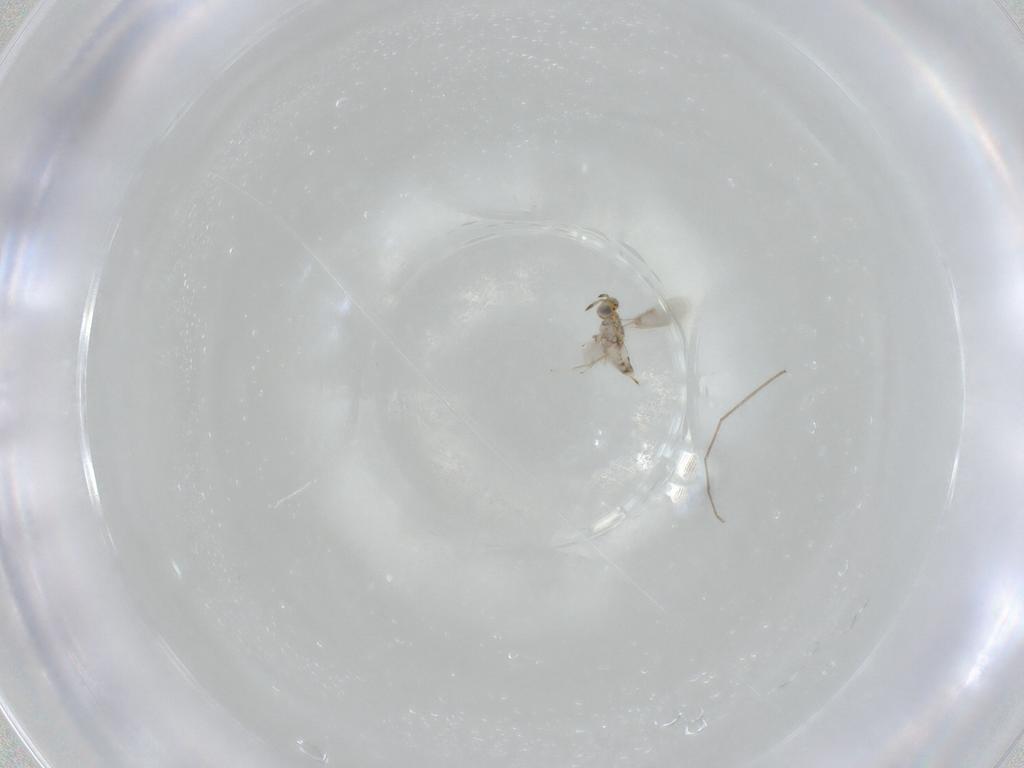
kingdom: Animalia
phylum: Arthropoda
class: Insecta
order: Hymenoptera
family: Aphelinidae
